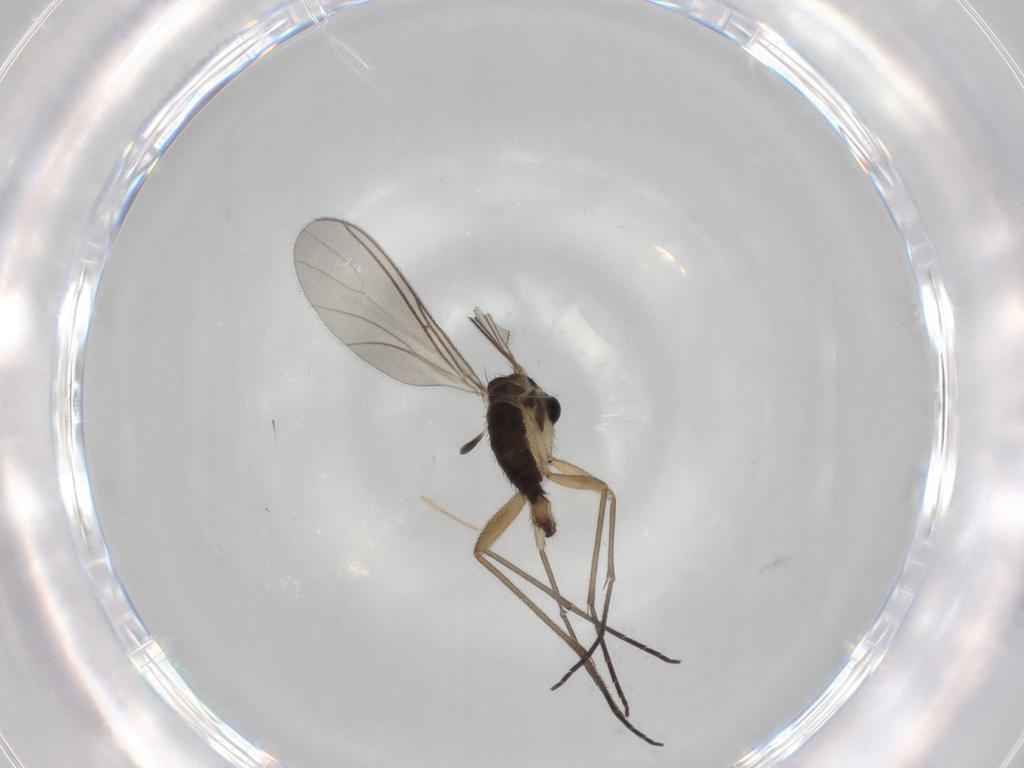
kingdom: Animalia
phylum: Arthropoda
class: Insecta
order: Diptera
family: Sciaridae
